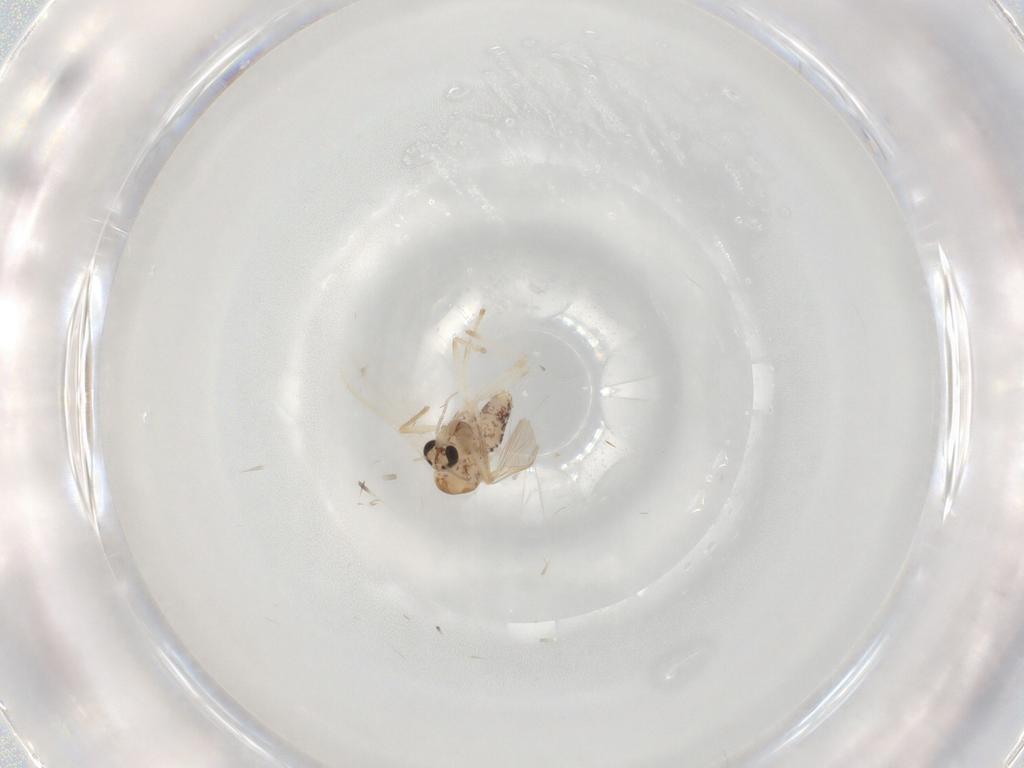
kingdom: Animalia
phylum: Arthropoda
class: Insecta
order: Diptera
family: Chironomidae
